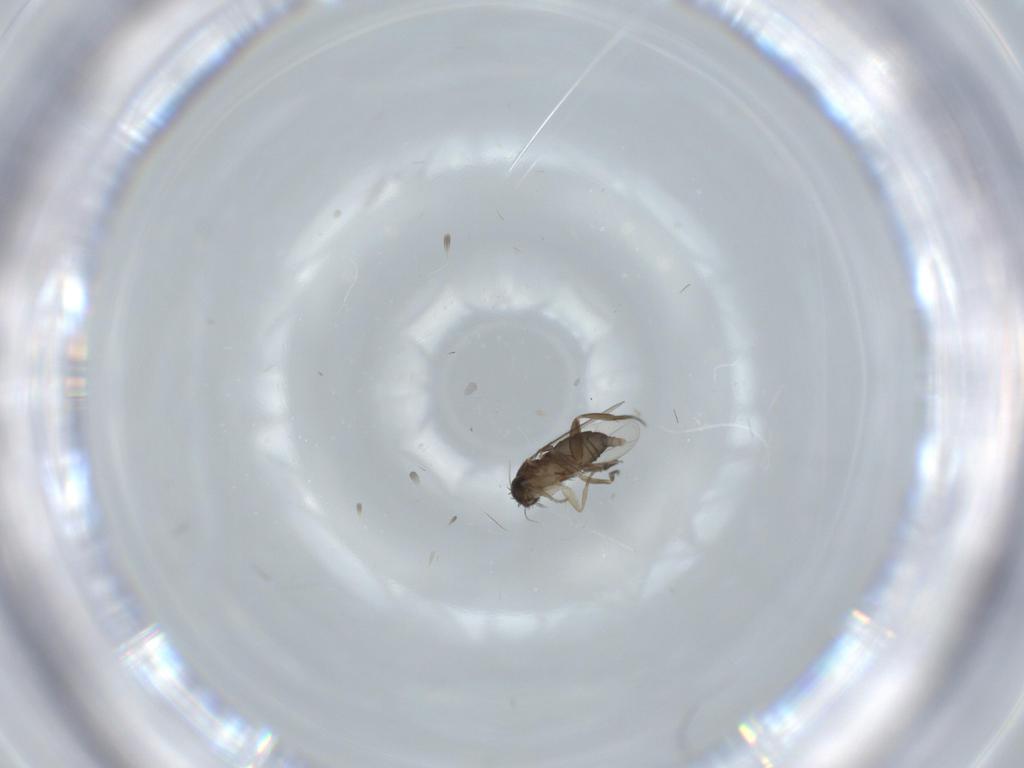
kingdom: Animalia
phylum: Arthropoda
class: Insecta
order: Diptera
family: Phoridae
